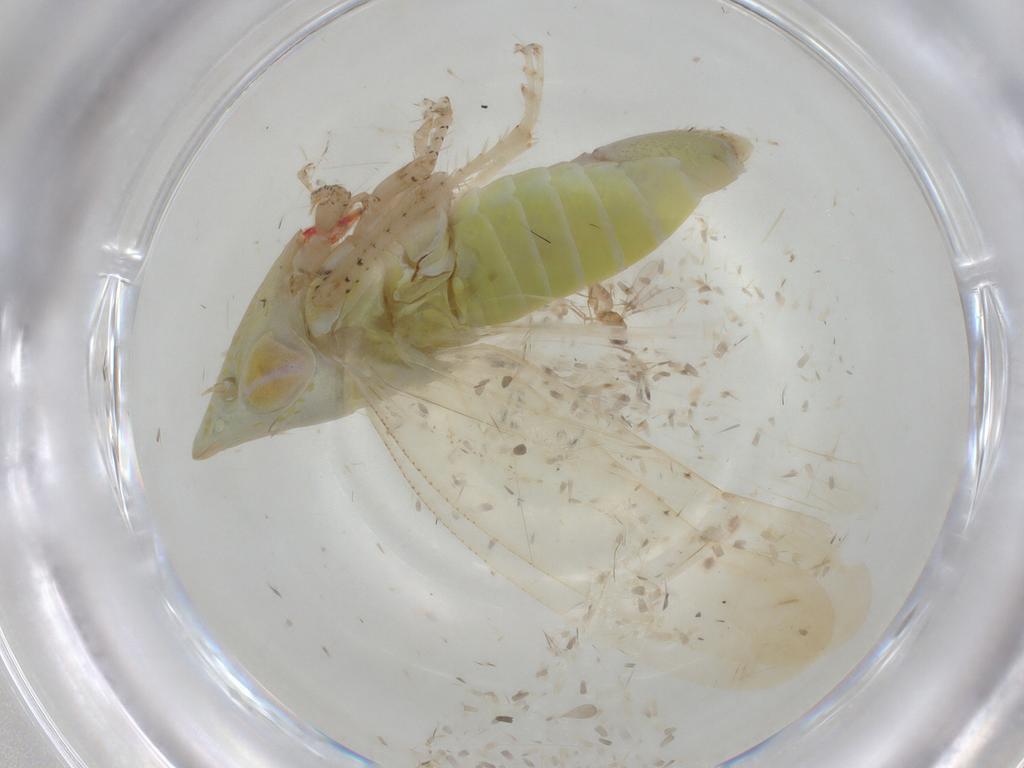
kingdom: Animalia
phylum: Arthropoda
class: Insecta
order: Hemiptera
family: Cicadellidae
